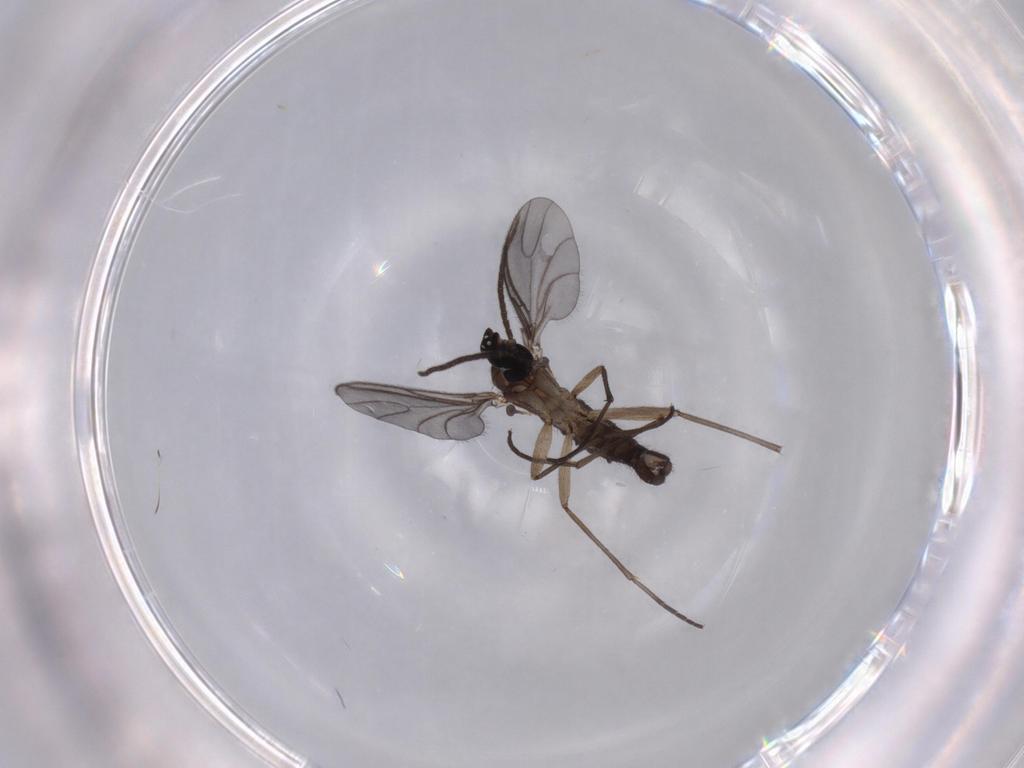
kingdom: Animalia
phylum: Arthropoda
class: Insecta
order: Diptera
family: Sciaridae
